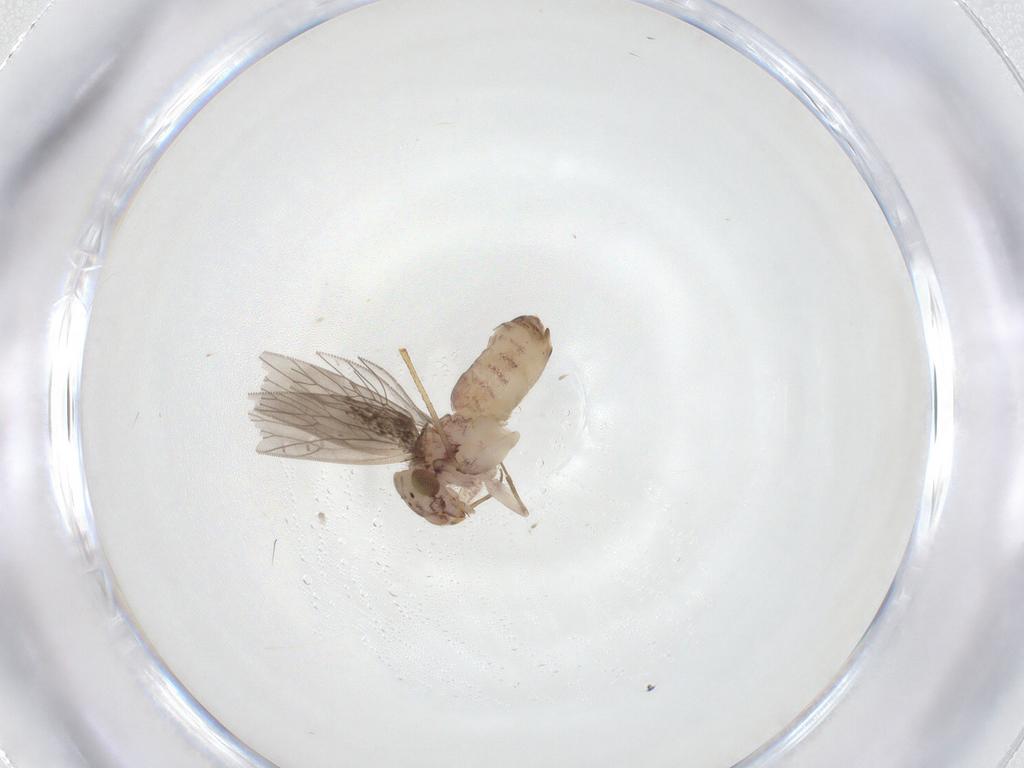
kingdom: Animalia
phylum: Arthropoda
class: Insecta
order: Psocodea
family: Lepidopsocidae
